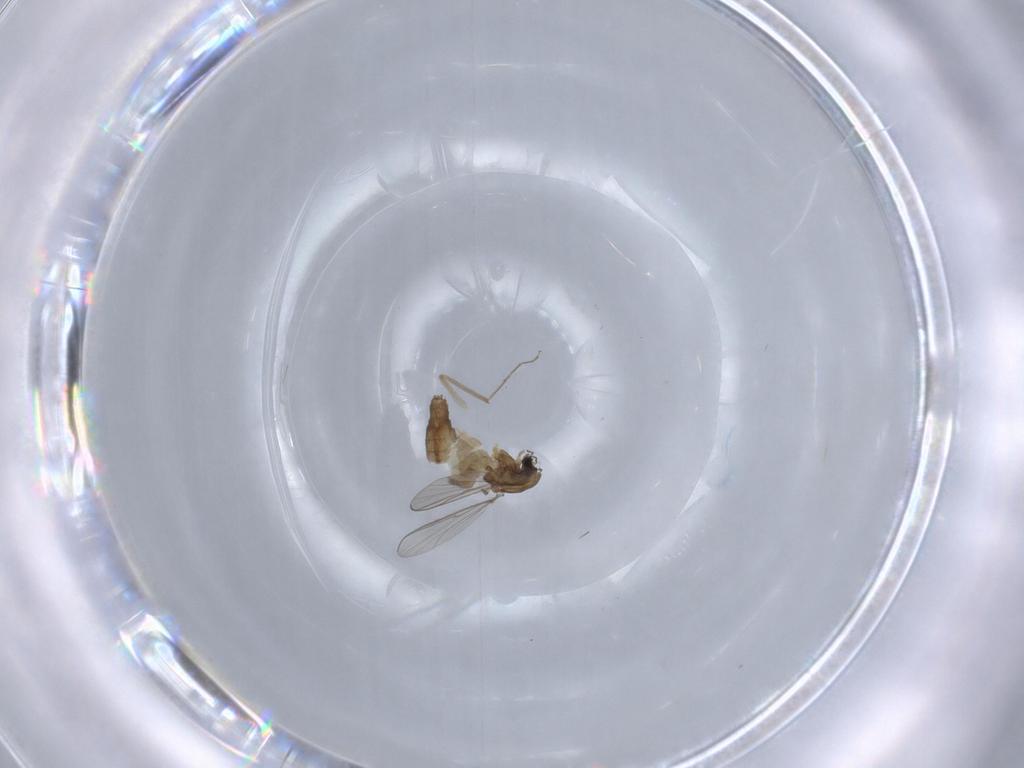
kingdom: Animalia
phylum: Arthropoda
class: Insecta
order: Diptera
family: Chironomidae
